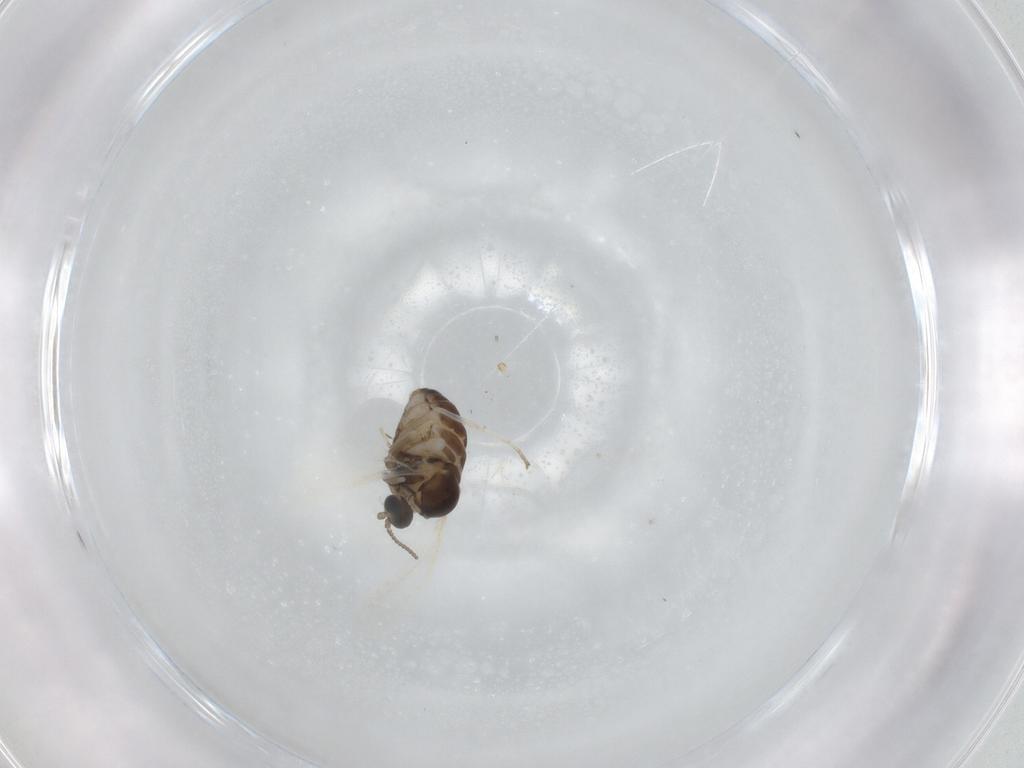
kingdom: Animalia
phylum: Arthropoda
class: Insecta
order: Diptera
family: Cecidomyiidae
